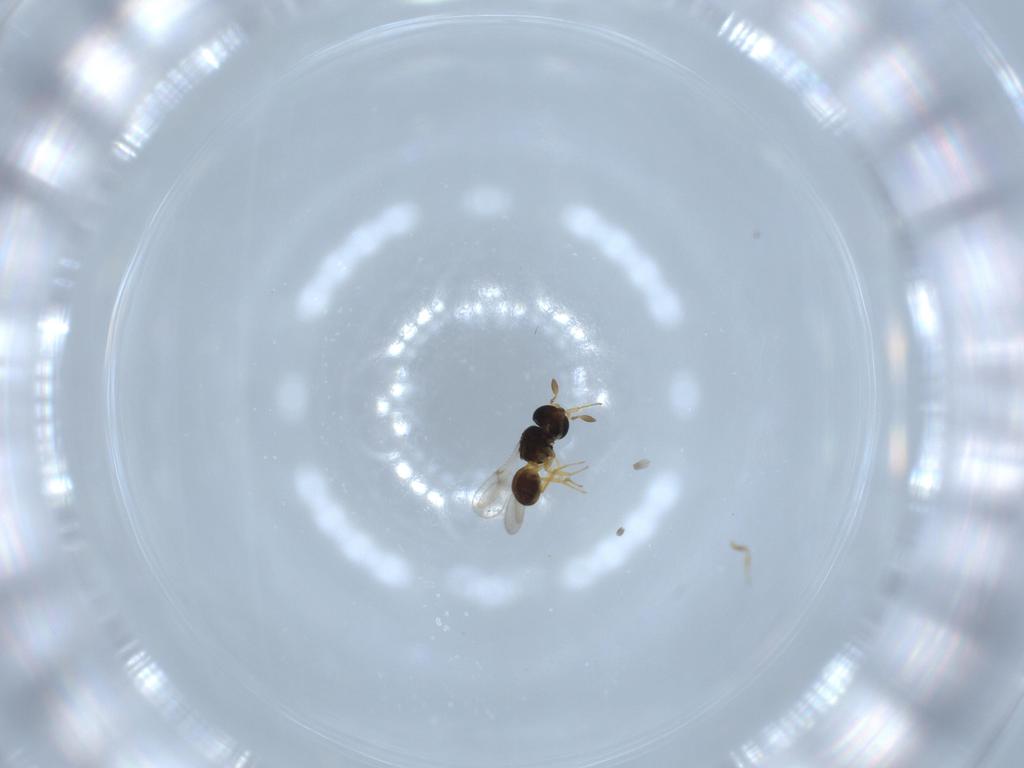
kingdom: Animalia
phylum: Arthropoda
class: Insecta
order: Hymenoptera
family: Scelionidae
